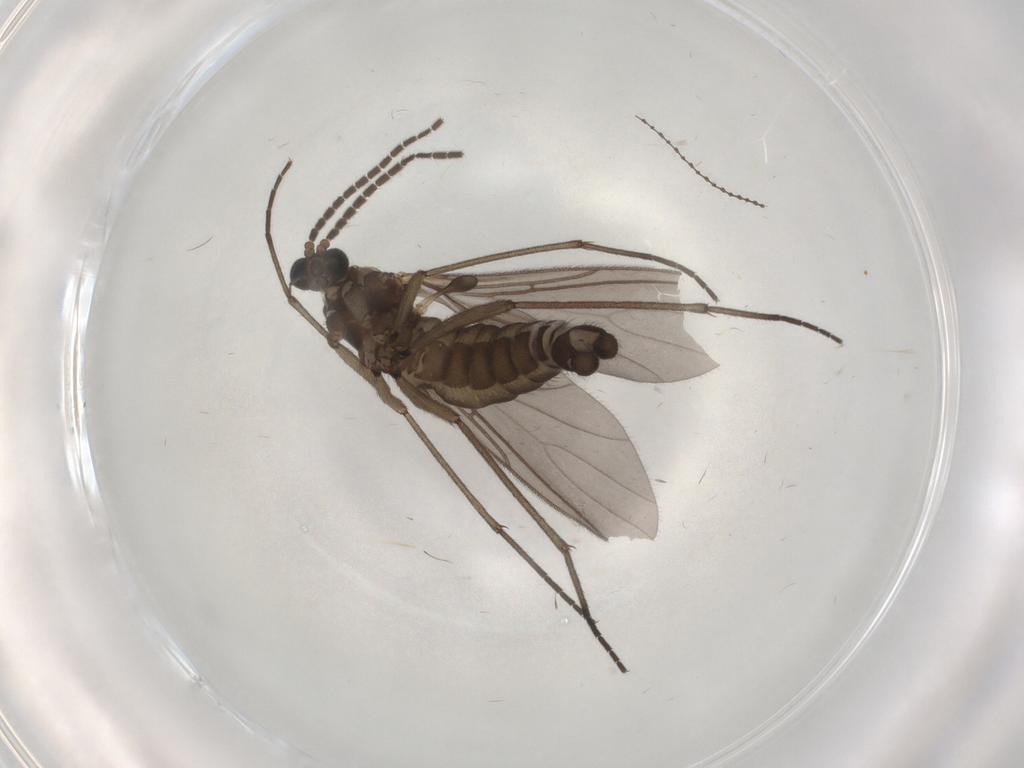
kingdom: Animalia
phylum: Arthropoda
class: Insecta
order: Diptera
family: Sciaridae
